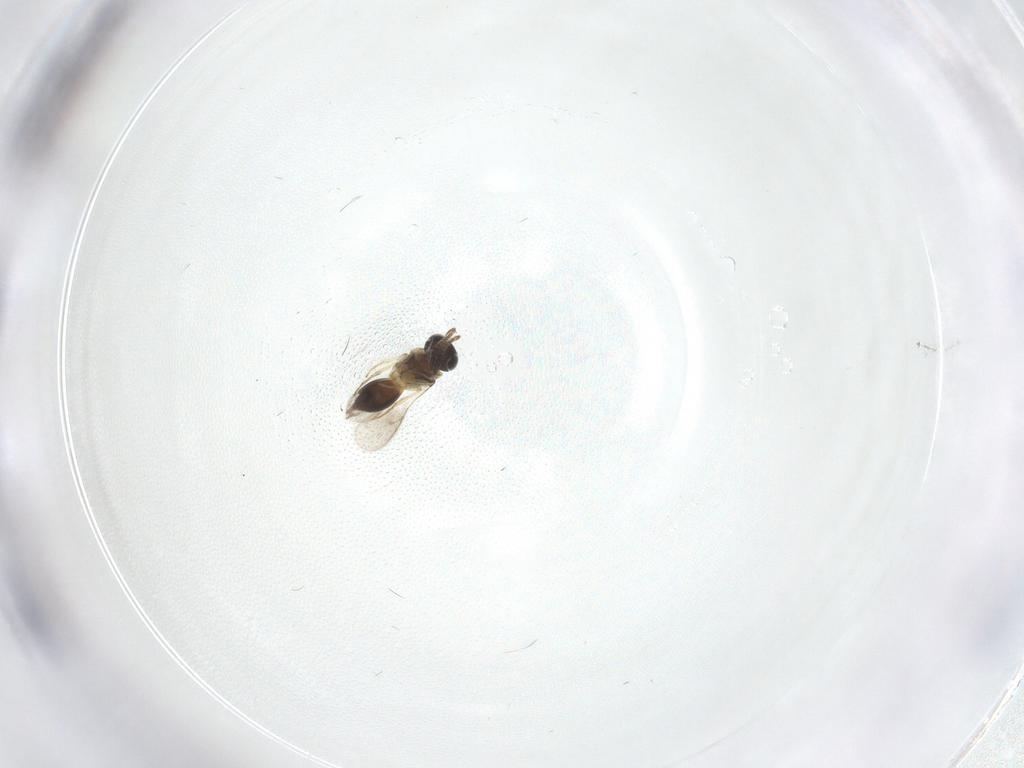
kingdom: Animalia
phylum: Arthropoda
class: Insecta
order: Hymenoptera
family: Scelionidae
